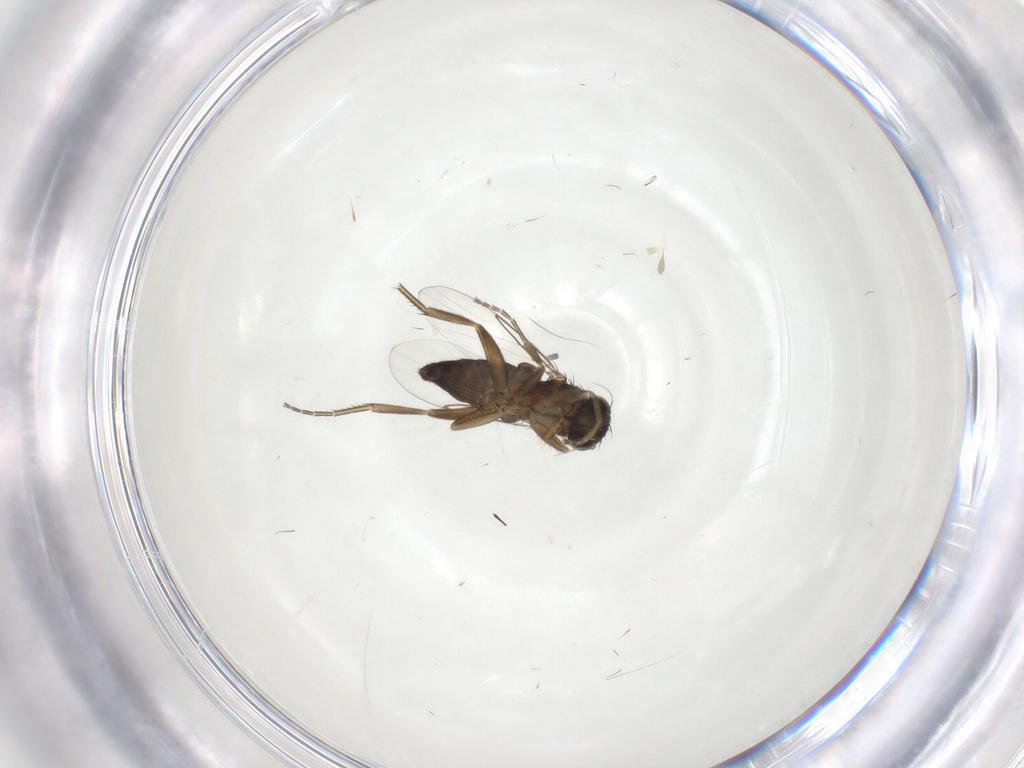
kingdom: Animalia
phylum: Arthropoda
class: Insecta
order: Diptera
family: Phoridae
